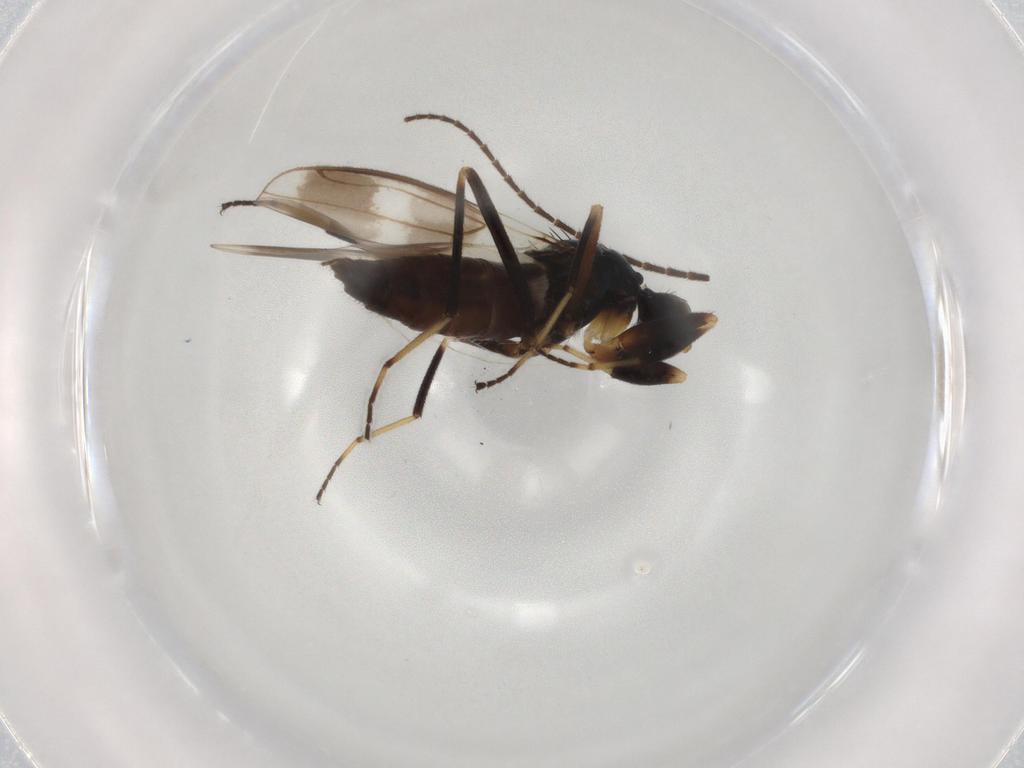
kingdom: Animalia
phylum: Arthropoda
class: Insecta
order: Diptera
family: Hybotidae
